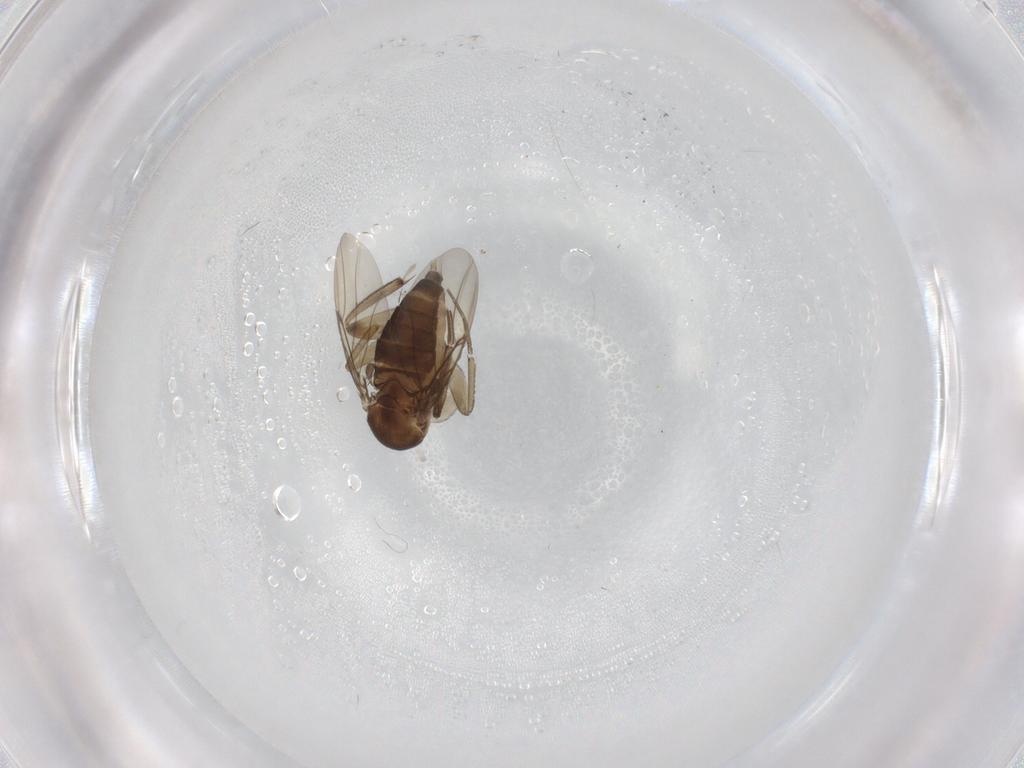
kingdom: Animalia
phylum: Arthropoda
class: Insecta
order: Diptera
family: Phoridae
